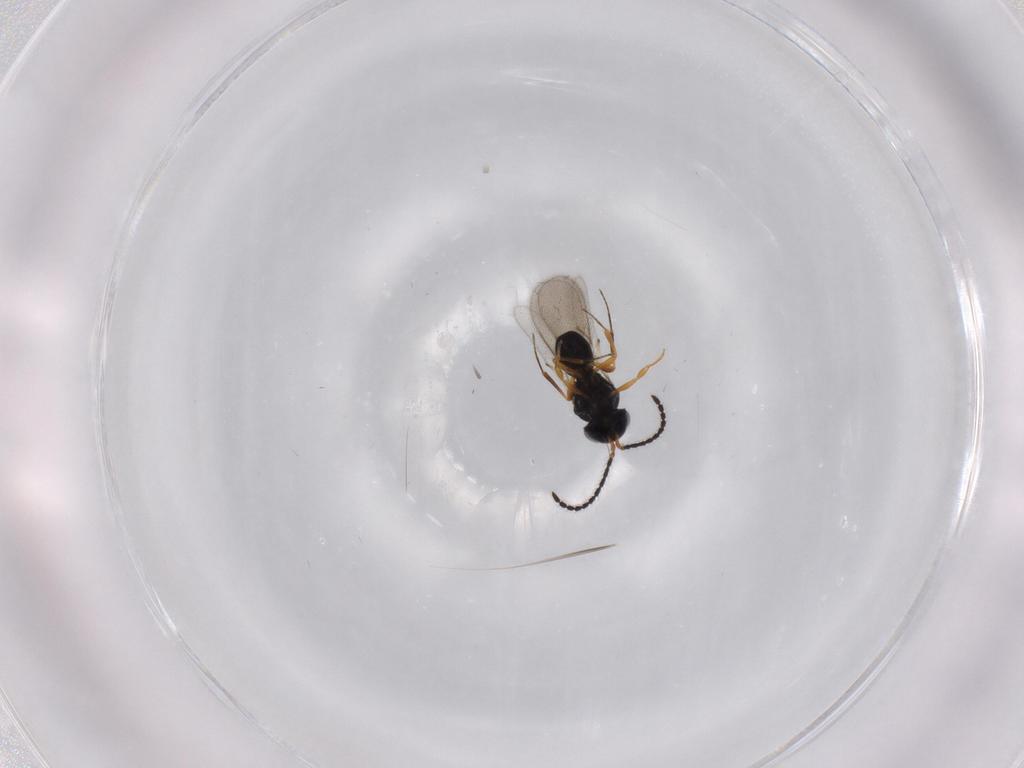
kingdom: Animalia
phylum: Arthropoda
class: Insecta
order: Hymenoptera
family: Scelionidae
